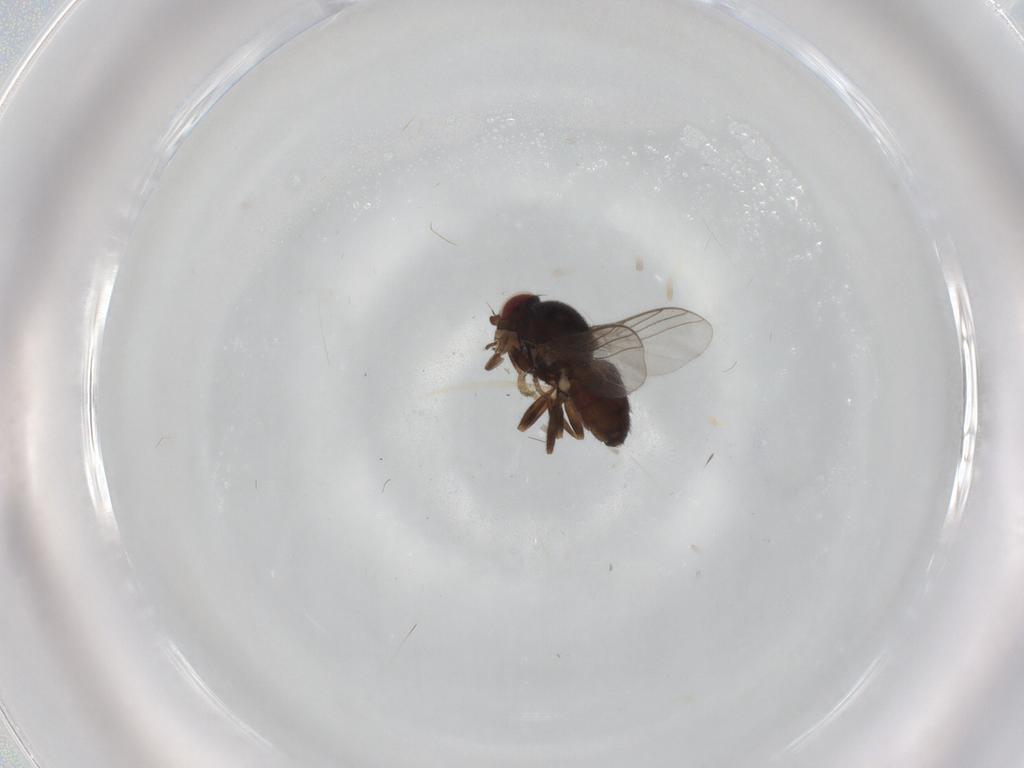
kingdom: Animalia
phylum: Arthropoda
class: Insecta
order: Diptera
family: Chloropidae
